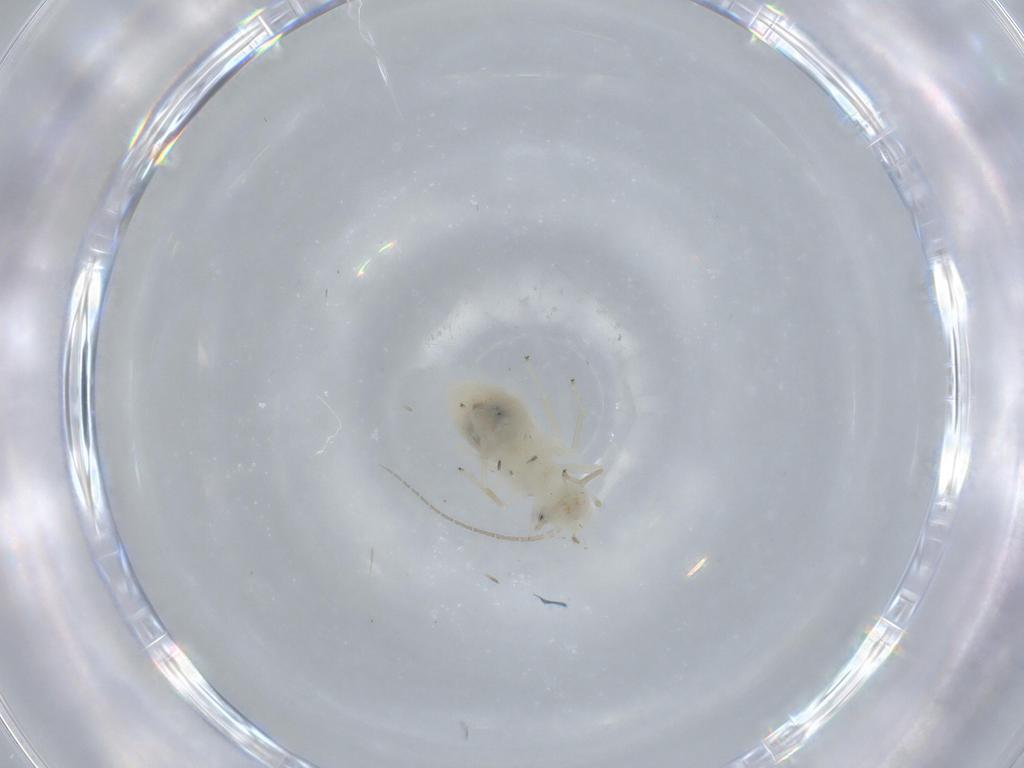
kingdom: Animalia
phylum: Arthropoda
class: Insecta
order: Psocodea
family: Caeciliusidae
